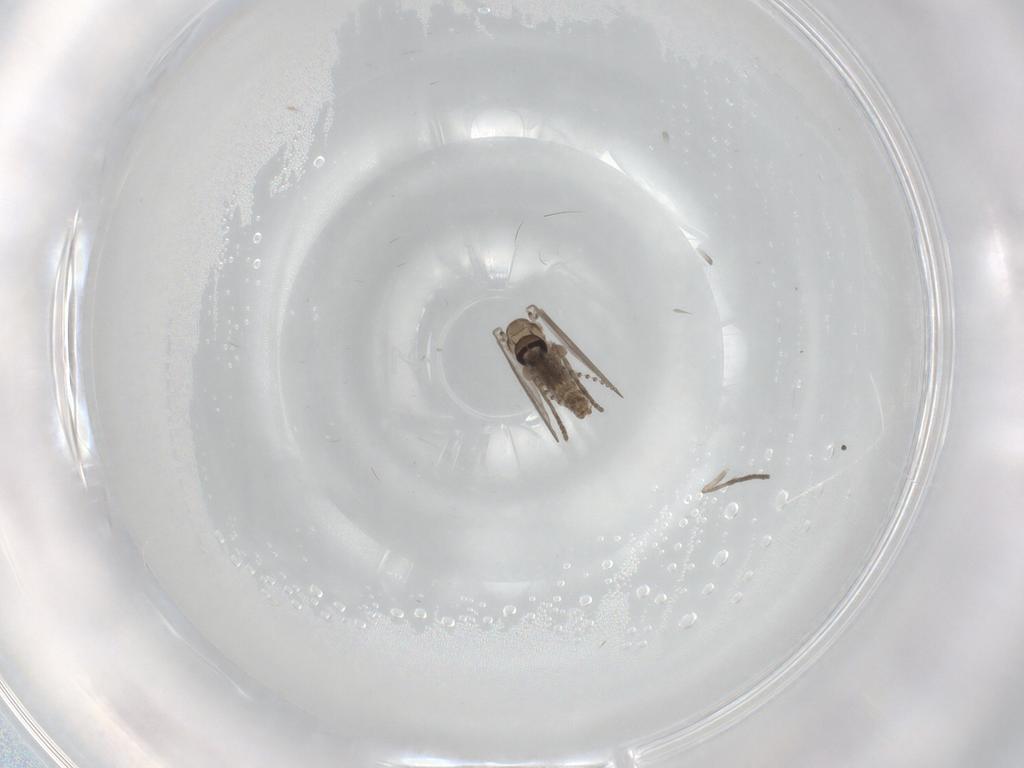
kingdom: Animalia
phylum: Arthropoda
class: Insecta
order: Diptera
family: Psychodidae
